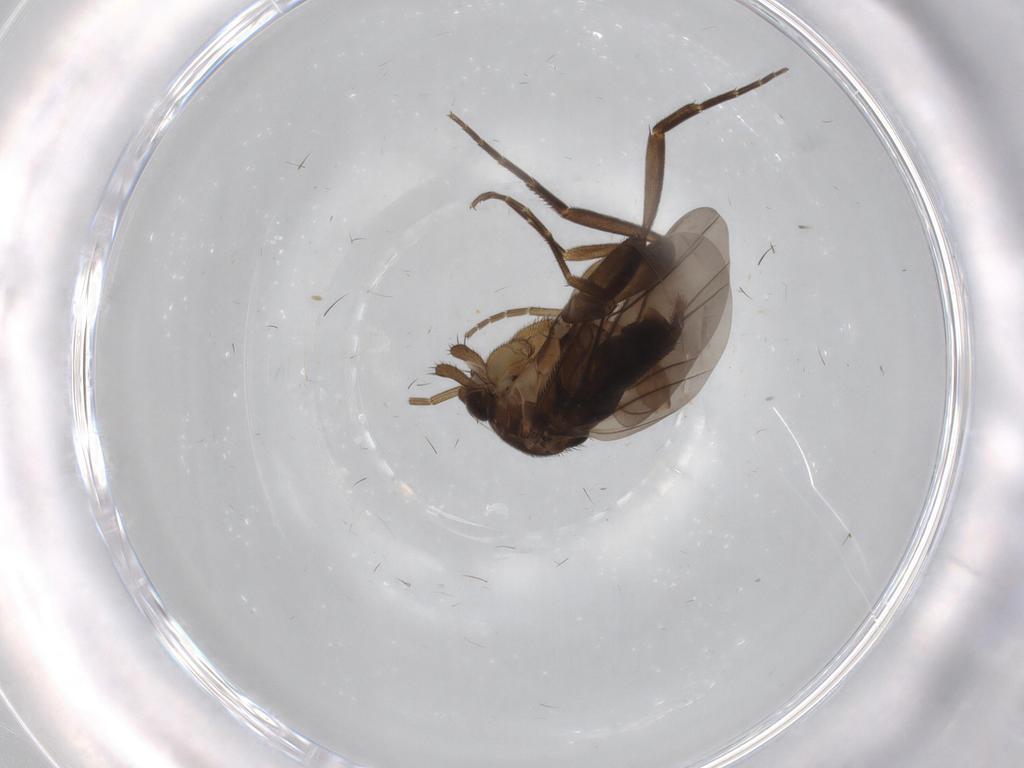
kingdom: Animalia
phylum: Arthropoda
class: Insecta
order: Diptera
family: Phoridae
